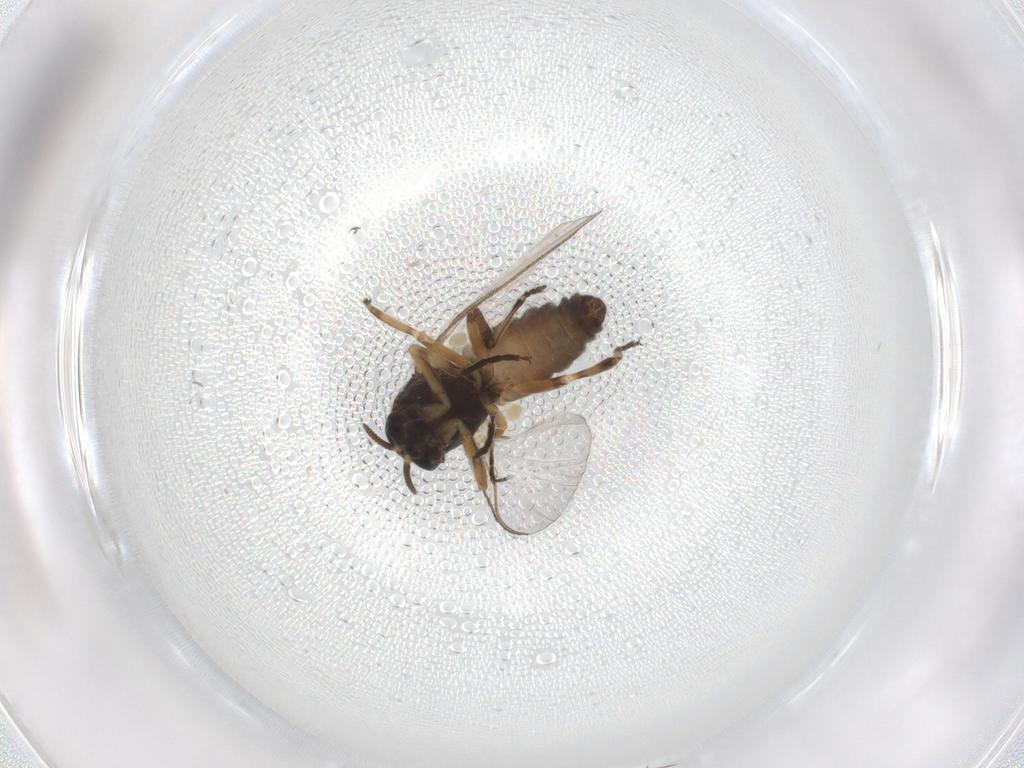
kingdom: Animalia
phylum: Arthropoda
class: Insecta
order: Diptera
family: Simuliidae
